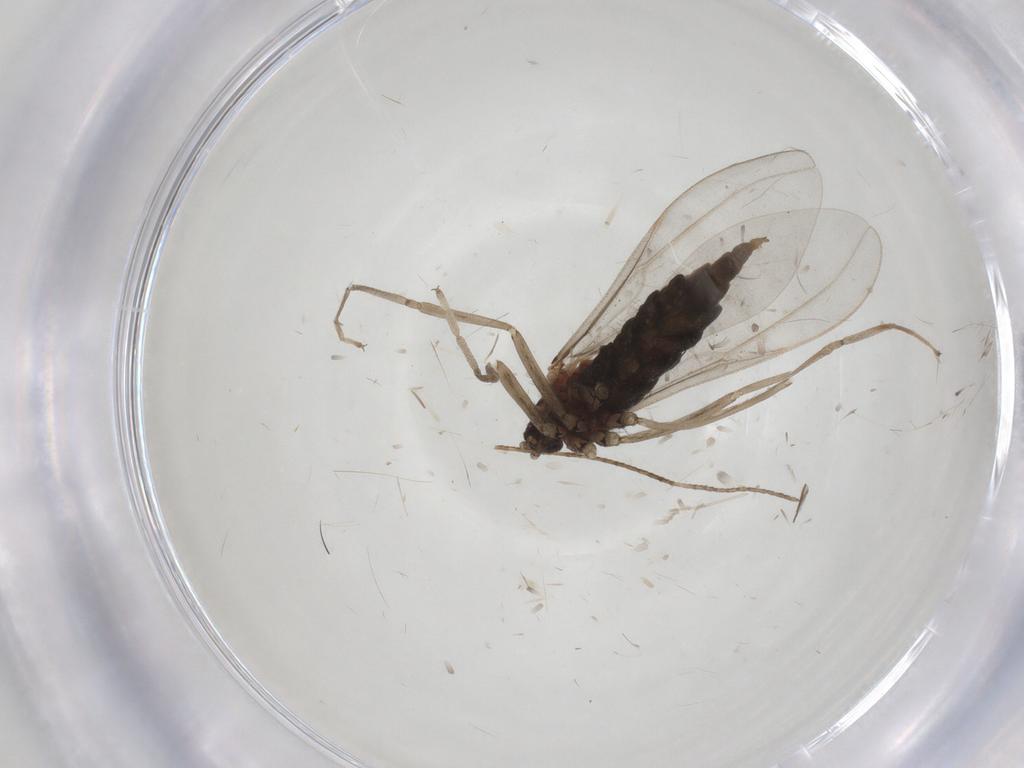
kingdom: Animalia
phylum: Arthropoda
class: Insecta
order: Diptera
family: Cecidomyiidae
